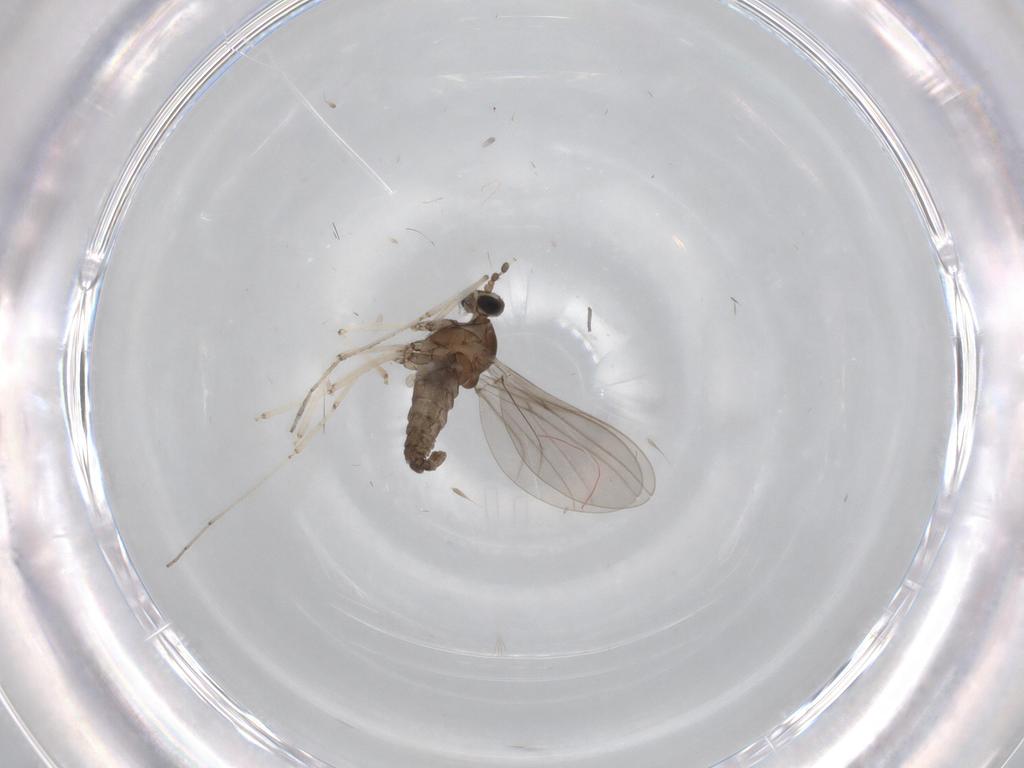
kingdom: Animalia
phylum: Arthropoda
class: Insecta
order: Diptera
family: Cecidomyiidae
